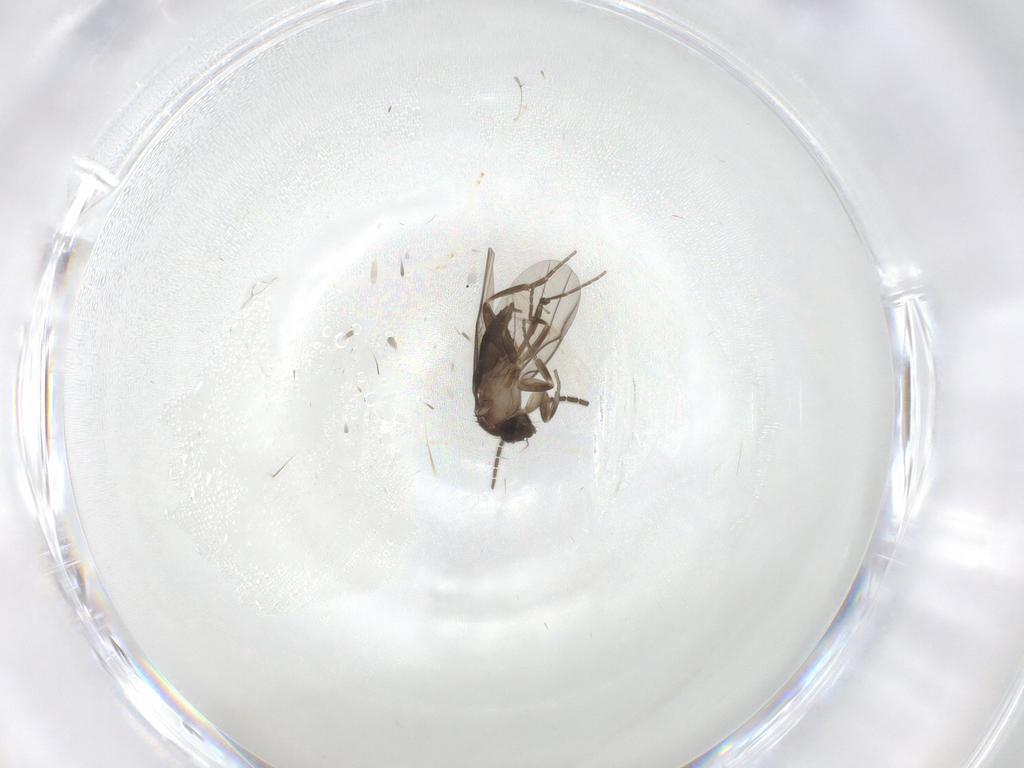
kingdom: Animalia
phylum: Arthropoda
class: Insecta
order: Diptera
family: Sciaridae
